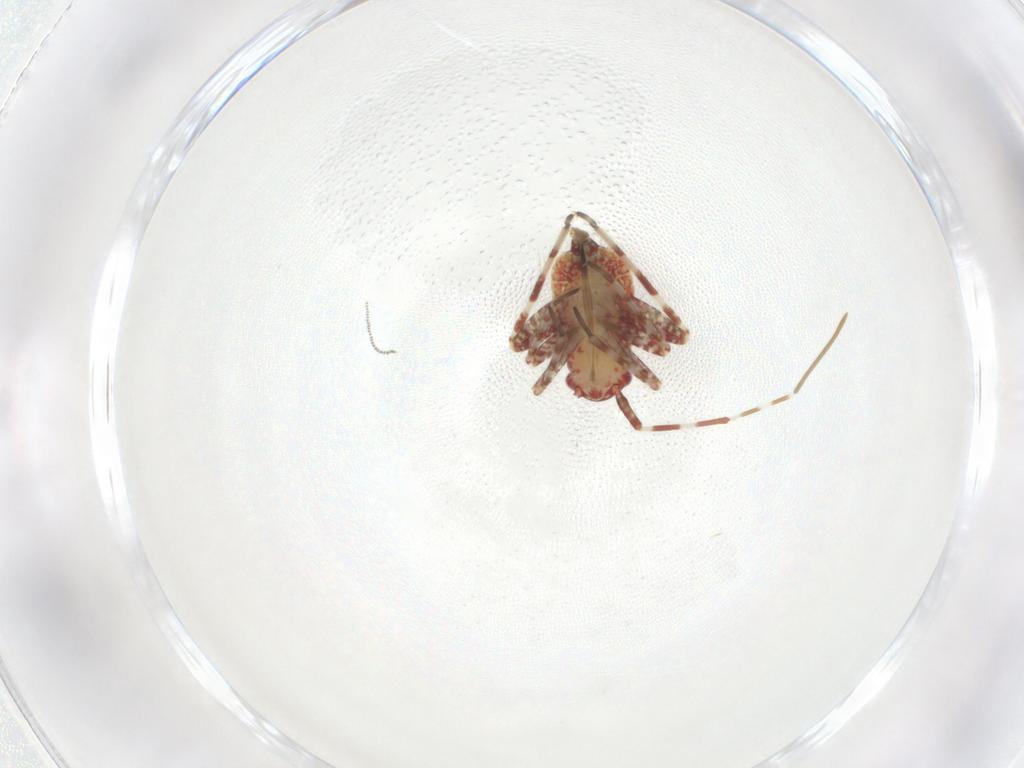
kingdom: Animalia
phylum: Arthropoda
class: Insecta
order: Hemiptera
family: Miridae
